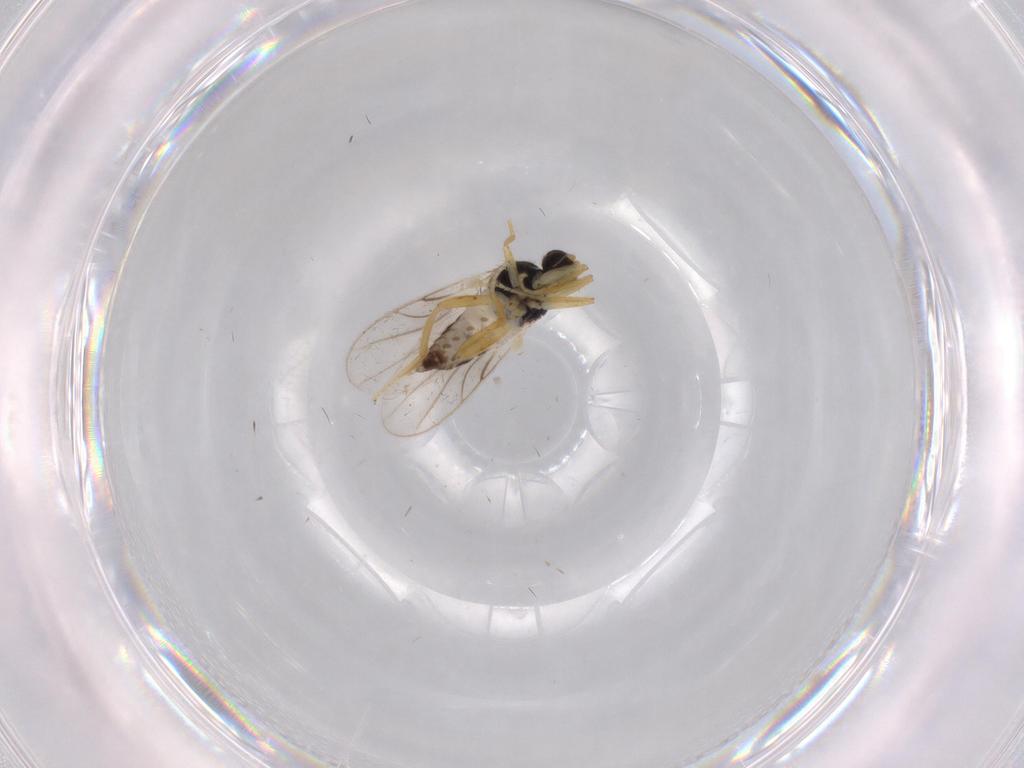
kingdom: Animalia
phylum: Arthropoda
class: Insecta
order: Diptera
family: Hybotidae
